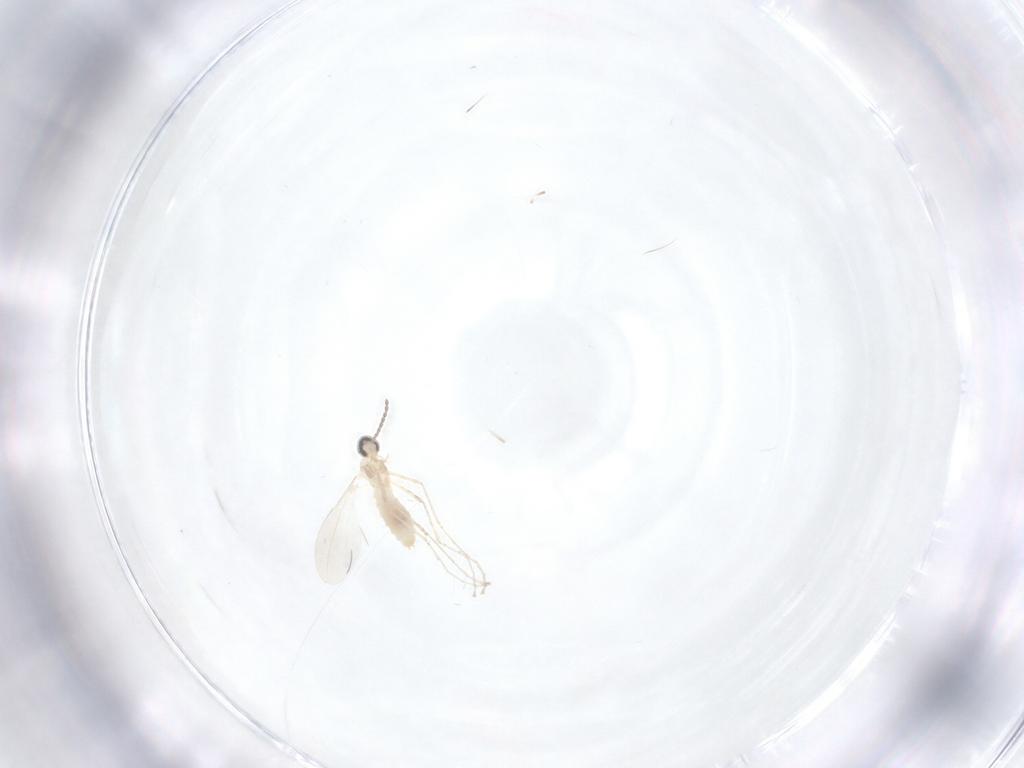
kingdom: Animalia
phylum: Arthropoda
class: Insecta
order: Diptera
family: Cecidomyiidae
